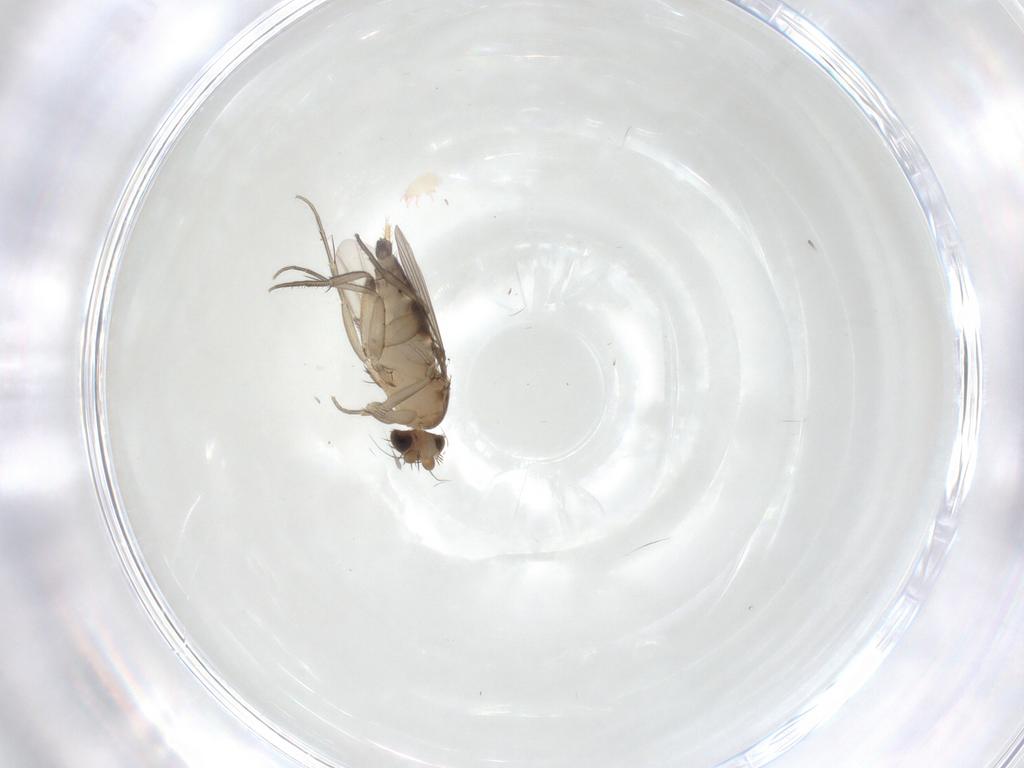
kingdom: Animalia
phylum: Arthropoda
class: Insecta
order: Diptera
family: Phoridae
